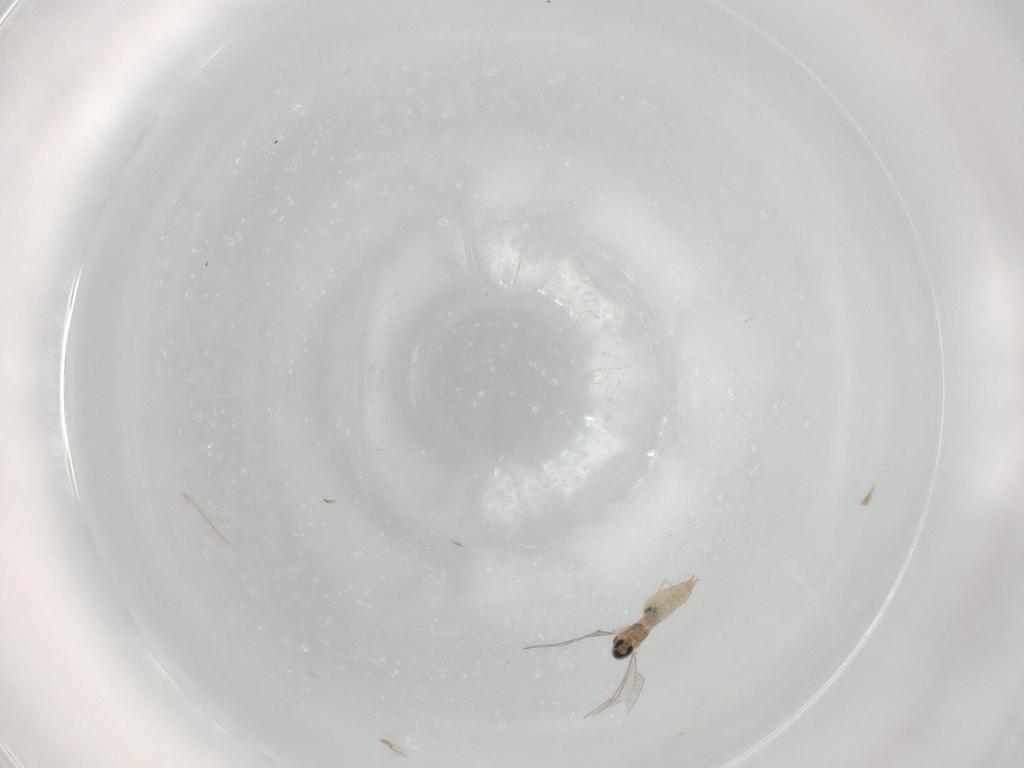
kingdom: Animalia
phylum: Arthropoda
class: Insecta
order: Diptera
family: Cecidomyiidae
